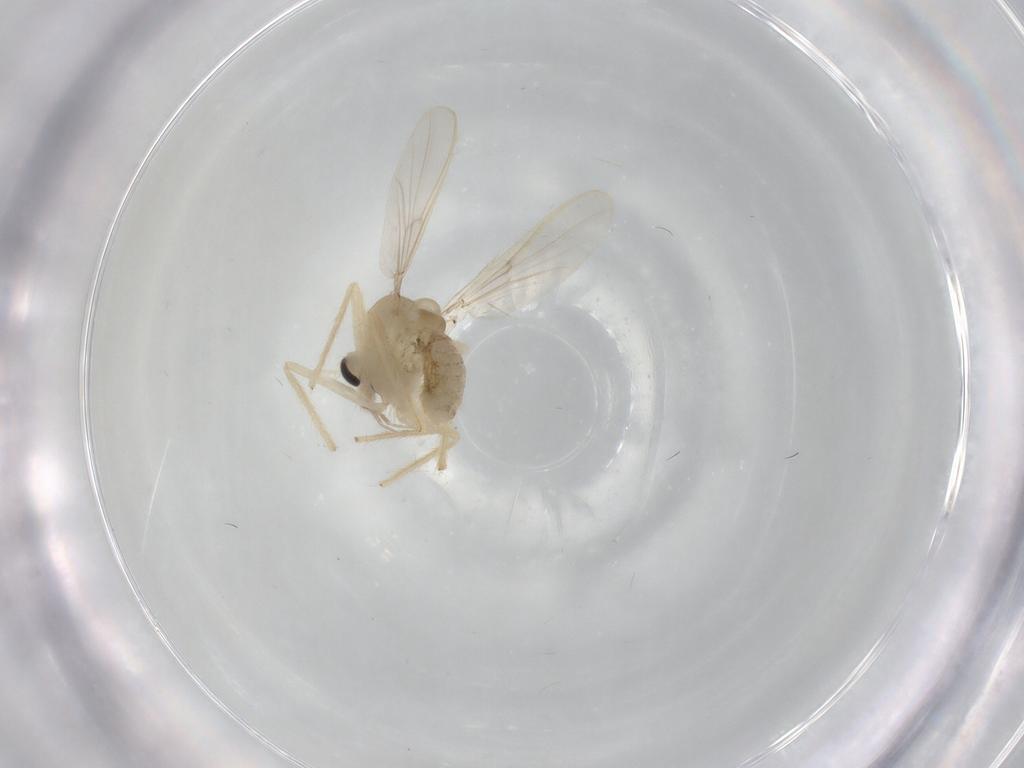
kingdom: Animalia
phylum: Arthropoda
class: Insecta
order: Diptera
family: Chironomidae
